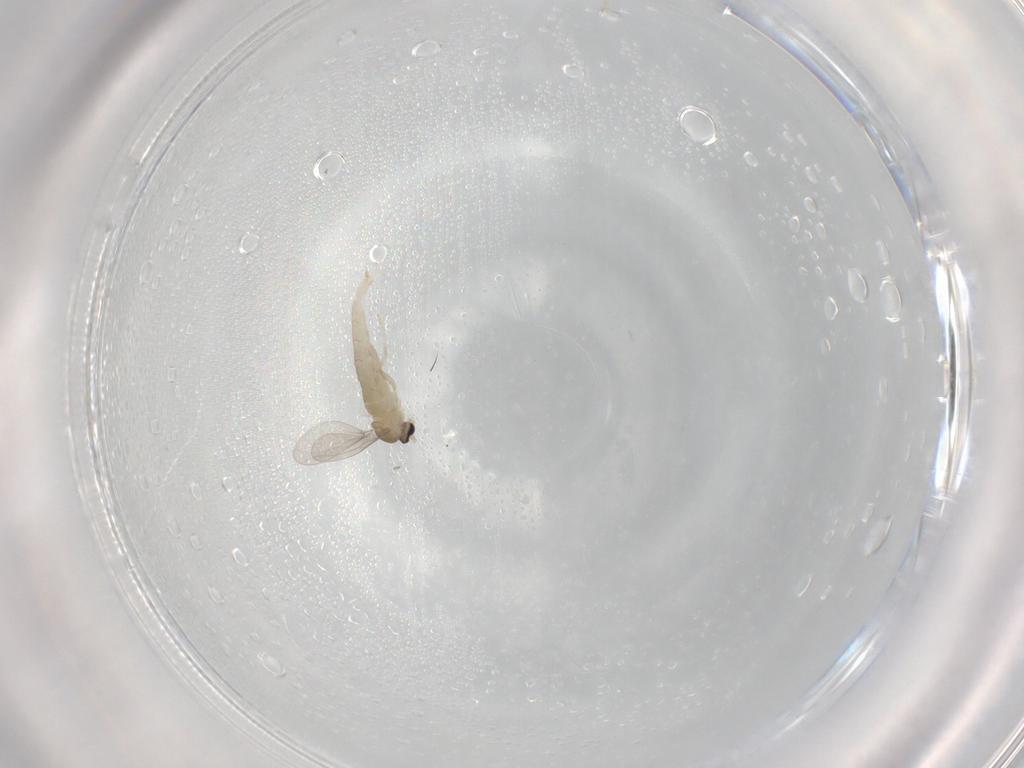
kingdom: Animalia
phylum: Arthropoda
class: Insecta
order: Diptera
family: Cecidomyiidae
